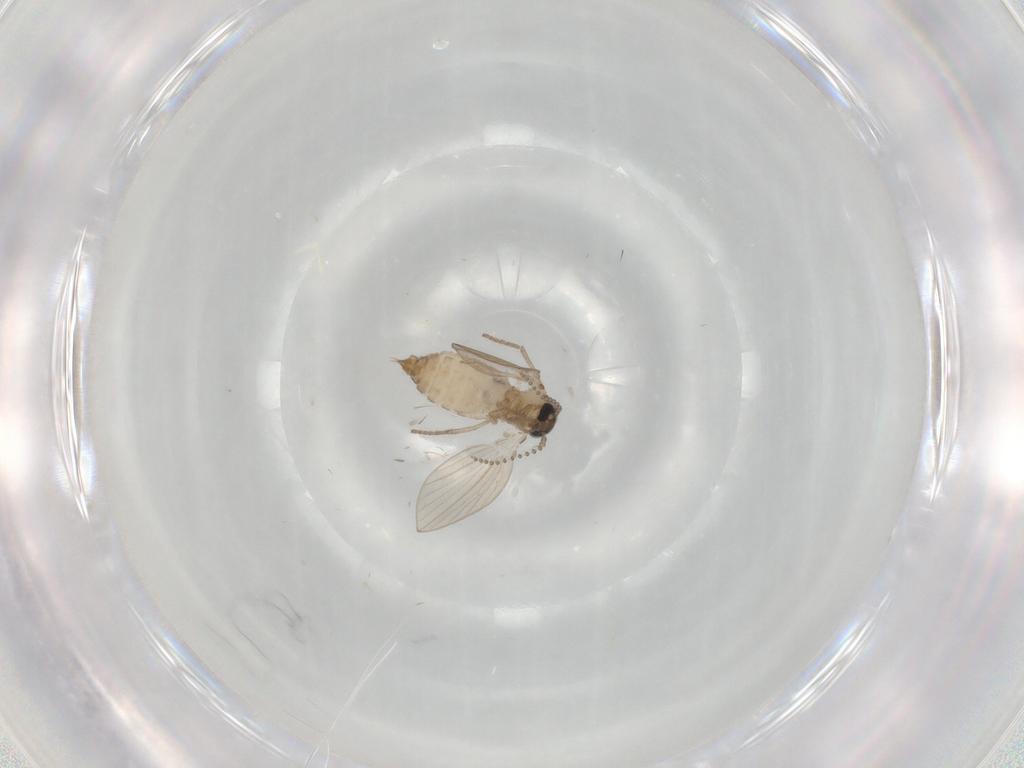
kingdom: Animalia
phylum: Arthropoda
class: Insecta
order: Diptera
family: Psychodidae
